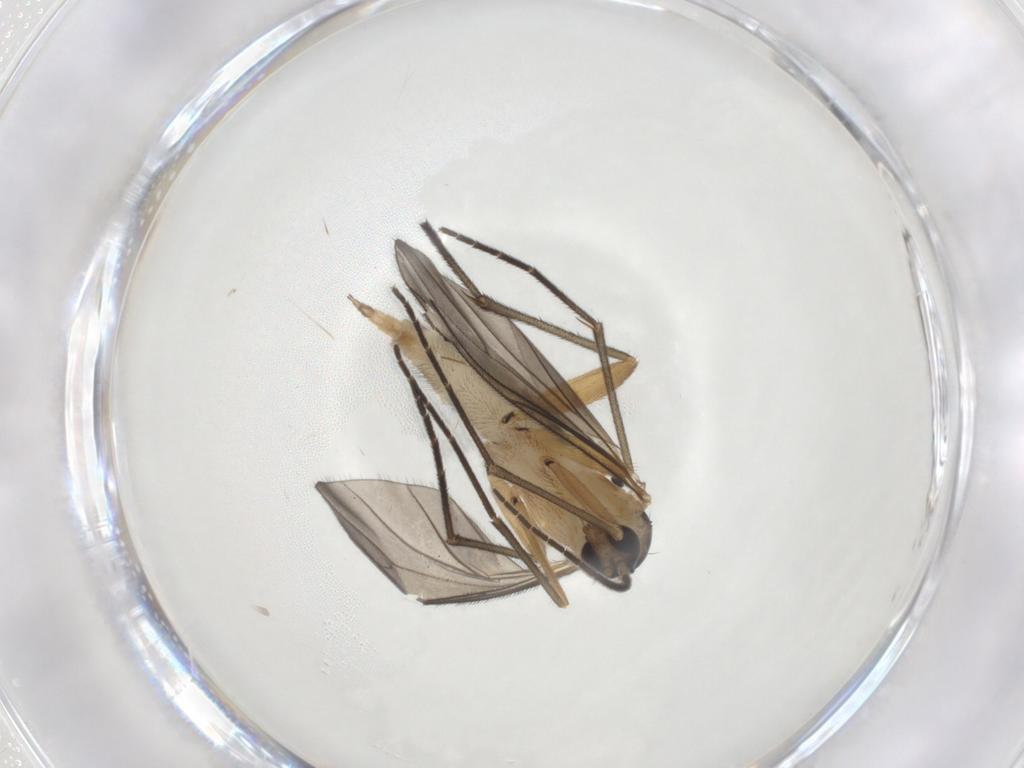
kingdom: Animalia
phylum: Arthropoda
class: Insecta
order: Diptera
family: Sciaridae
